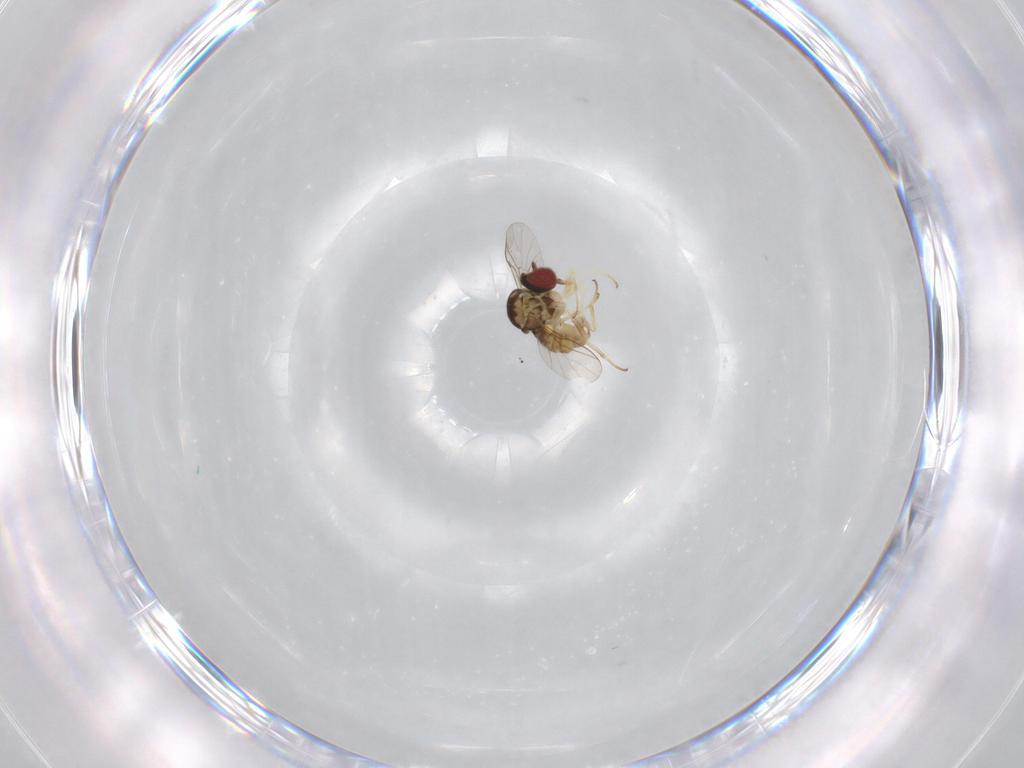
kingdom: Animalia
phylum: Arthropoda
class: Insecta
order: Diptera
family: Bombyliidae
